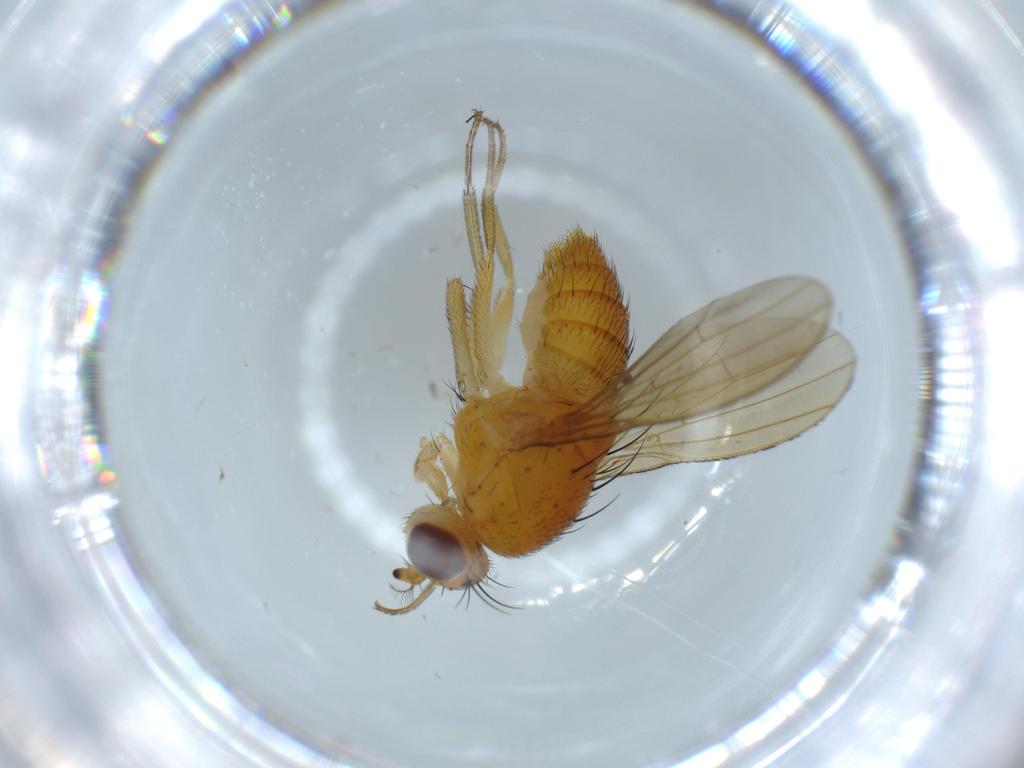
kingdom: Animalia
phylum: Arthropoda
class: Insecta
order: Diptera
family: Lauxaniidae
